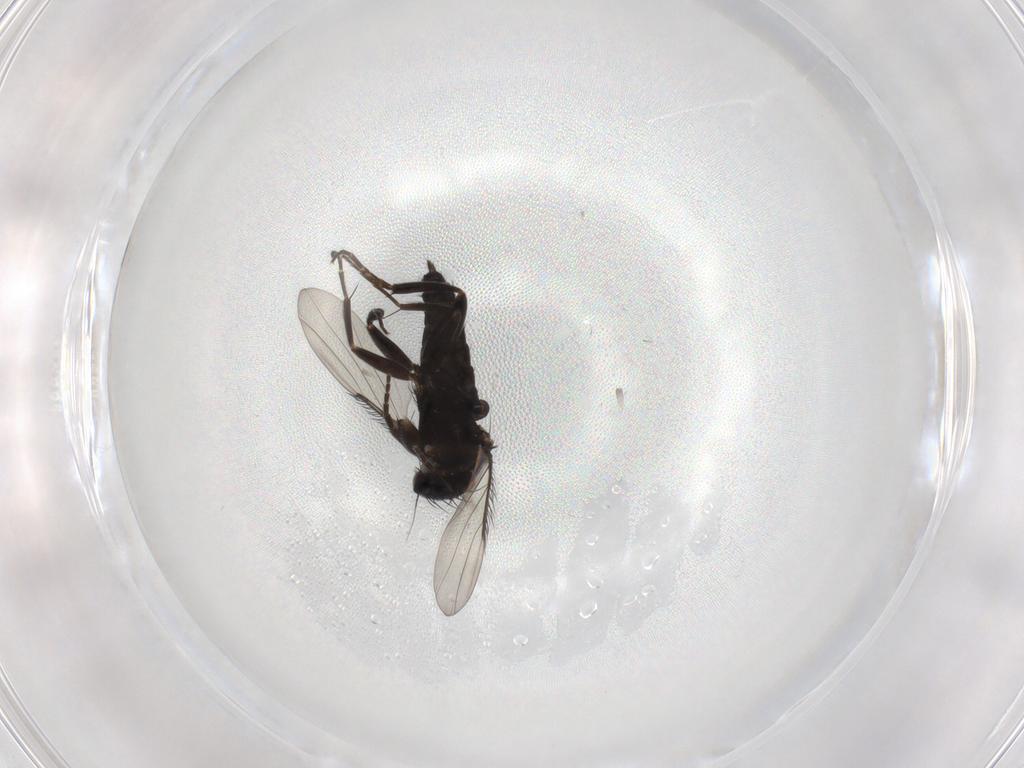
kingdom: Animalia
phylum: Arthropoda
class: Insecta
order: Diptera
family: Phoridae
